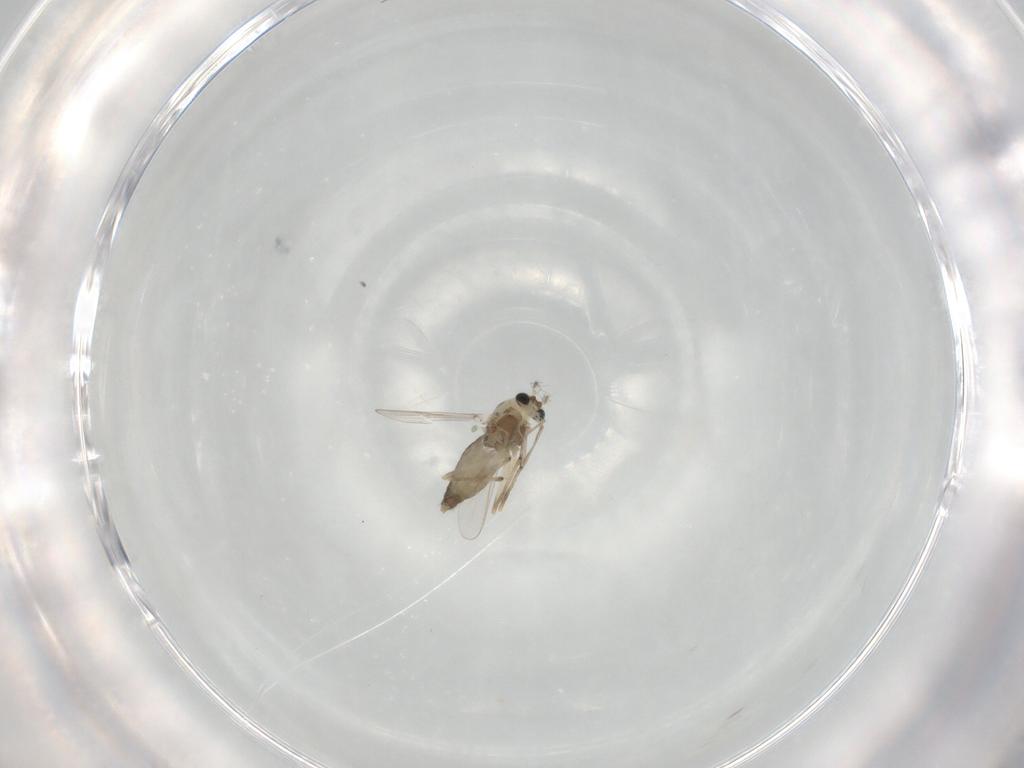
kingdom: Animalia
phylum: Arthropoda
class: Insecta
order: Diptera
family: Chironomidae
